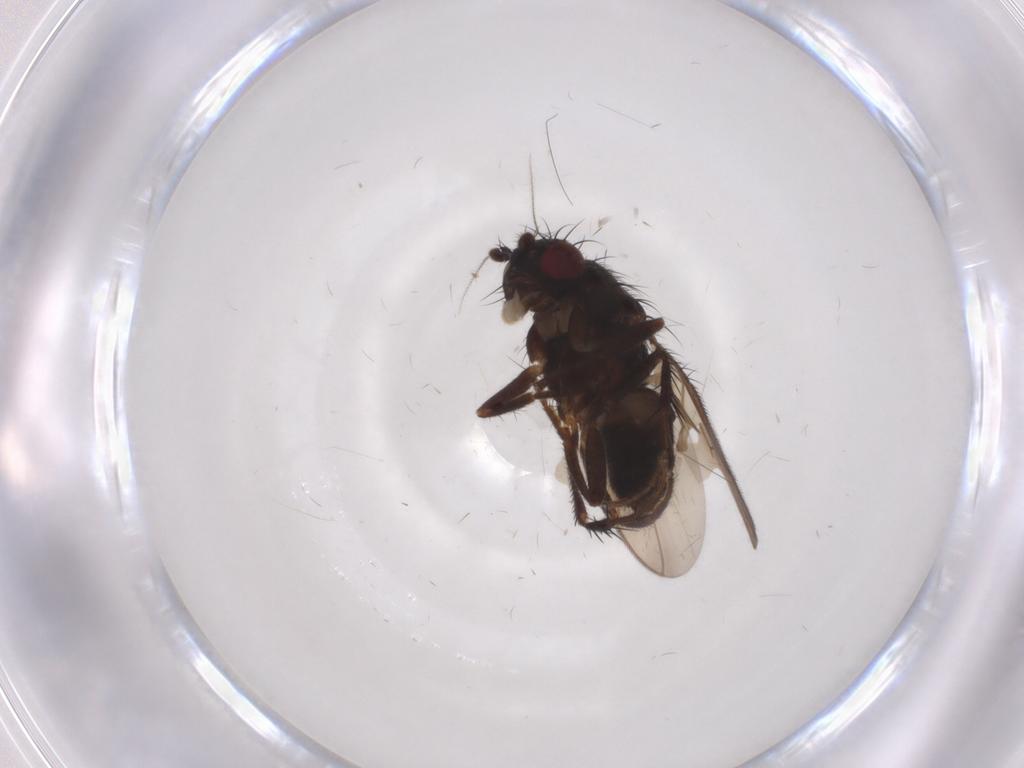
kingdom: Animalia
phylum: Arthropoda
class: Insecta
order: Diptera
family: Sphaeroceridae
